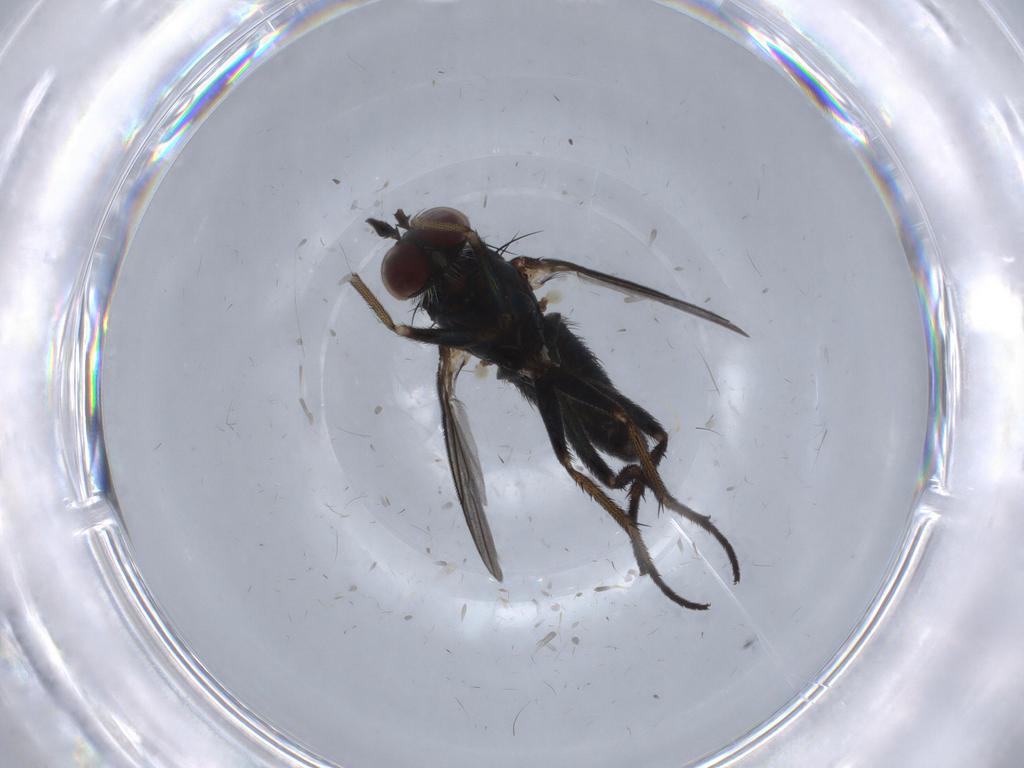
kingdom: Animalia
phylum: Arthropoda
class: Insecta
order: Diptera
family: Dolichopodidae
